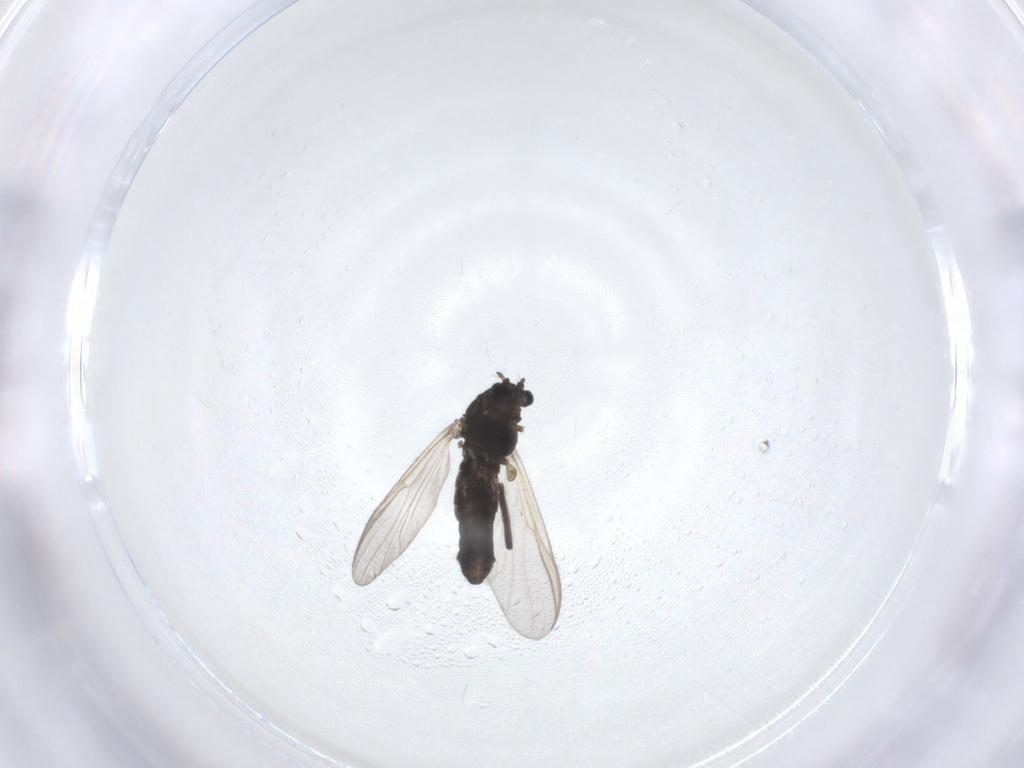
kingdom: Animalia
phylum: Arthropoda
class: Insecta
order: Diptera
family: Chironomidae
